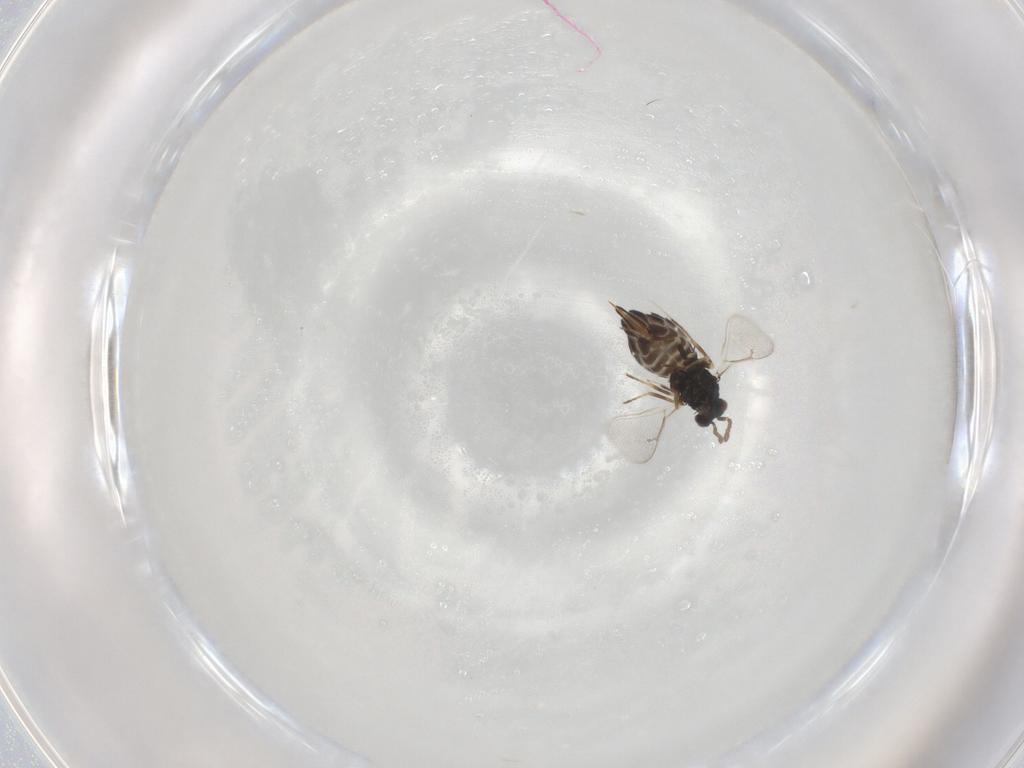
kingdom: Animalia
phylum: Arthropoda
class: Insecta
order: Hymenoptera
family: Eulophidae
